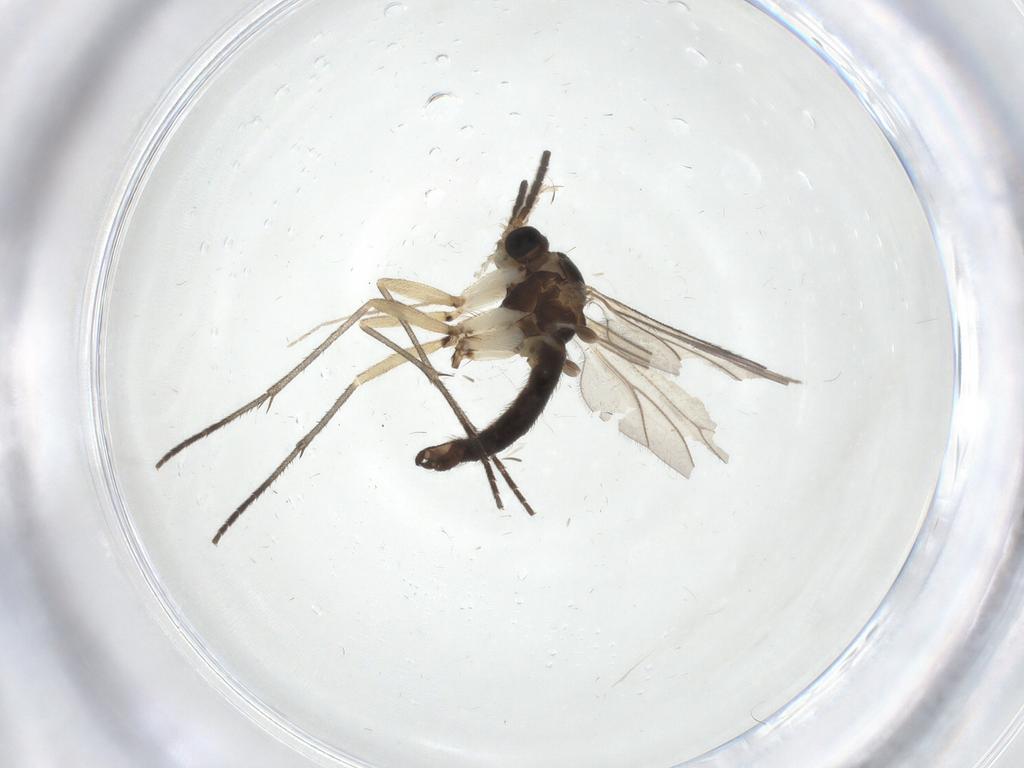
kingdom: Animalia
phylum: Arthropoda
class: Insecta
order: Diptera
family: Sciaridae
